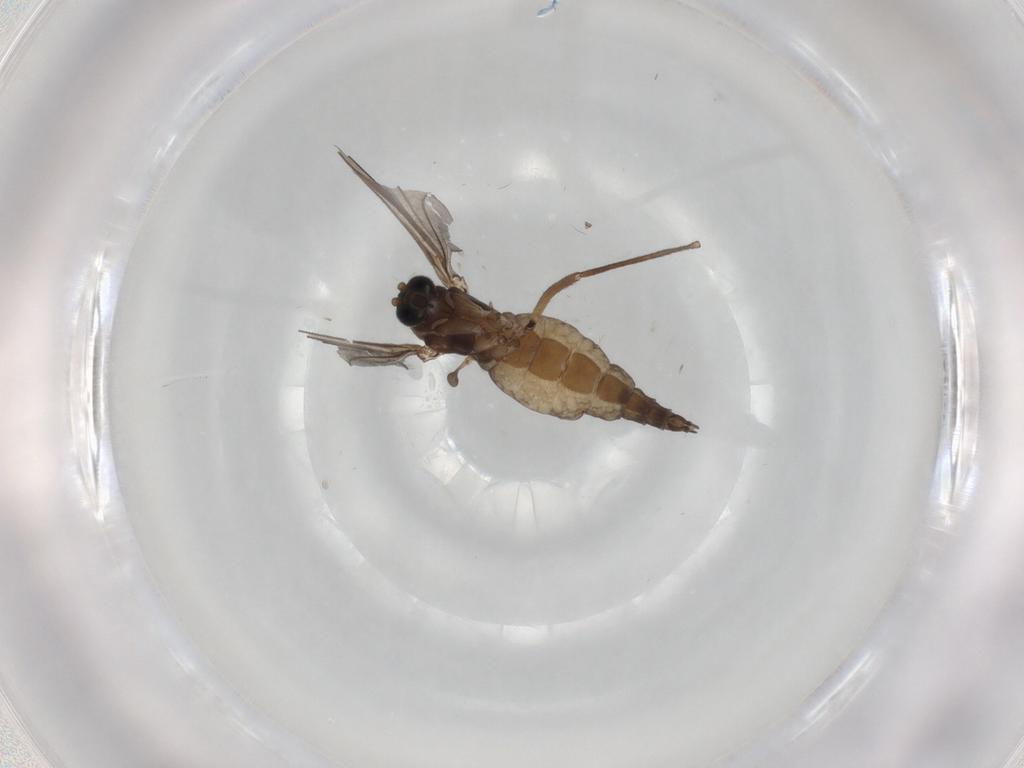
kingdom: Animalia
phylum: Arthropoda
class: Insecta
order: Diptera
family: Sciaridae
